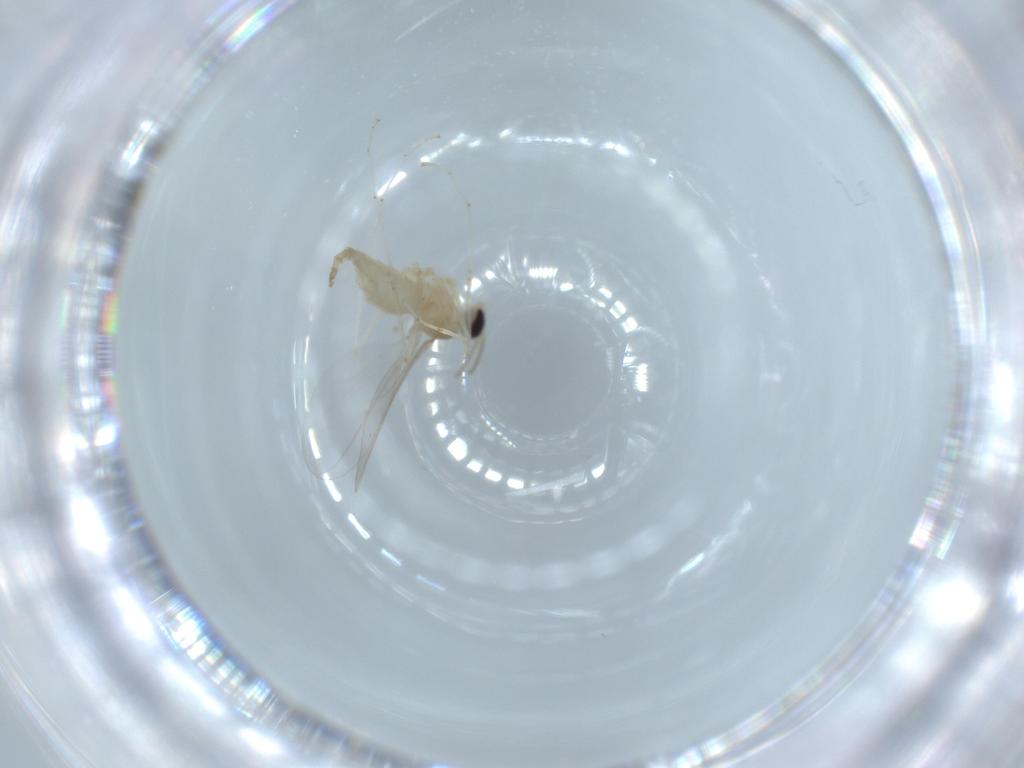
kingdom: Animalia
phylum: Arthropoda
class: Insecta
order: Diptera
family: Cecidomyiidae
